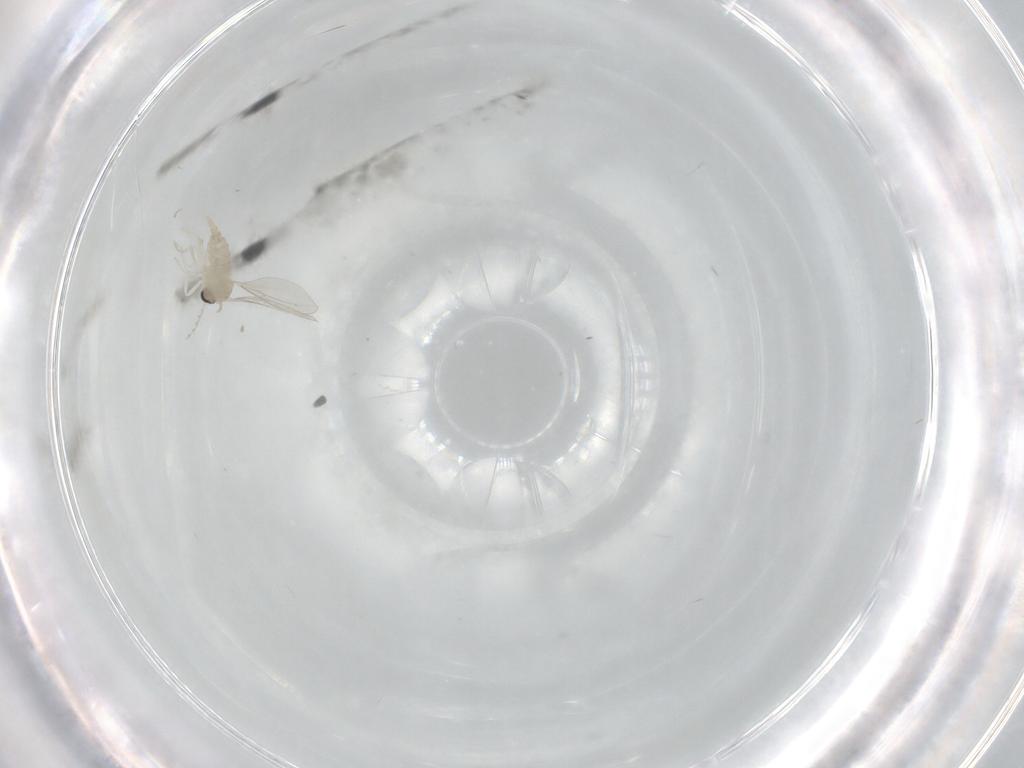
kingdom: Animalia
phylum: Arthropoda
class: Insecta
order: Diptera
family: Cecidomyiidae
